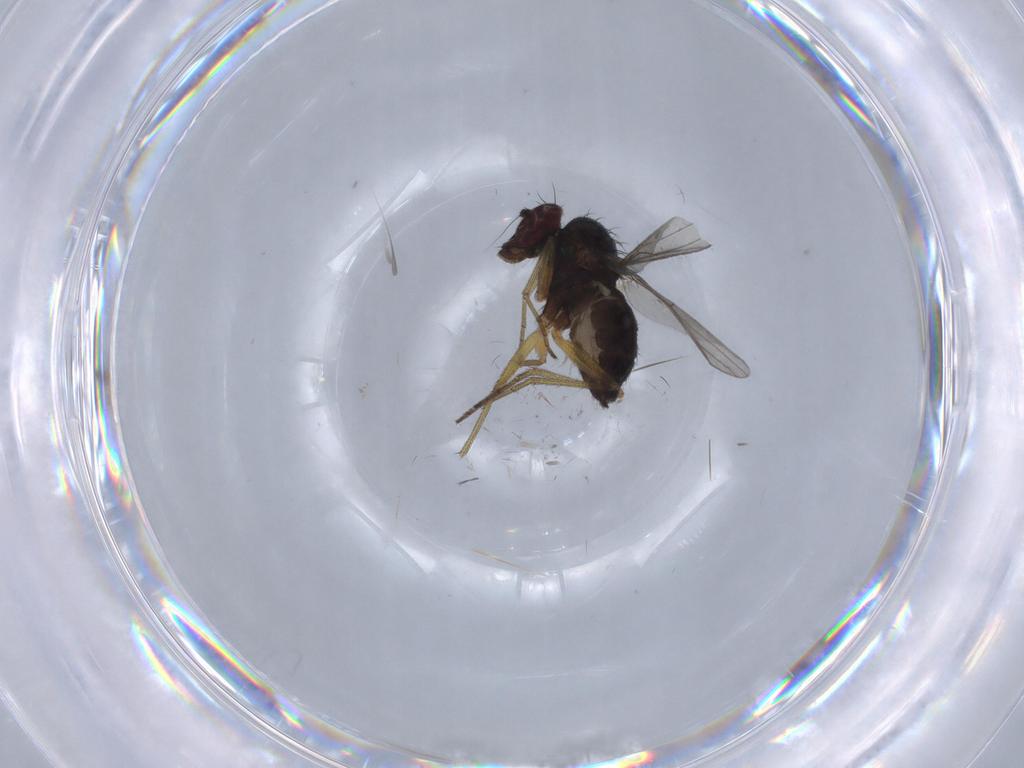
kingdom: Animalia
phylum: Arthropoda
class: Insecta
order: Diptera
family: Dolichopodidae
